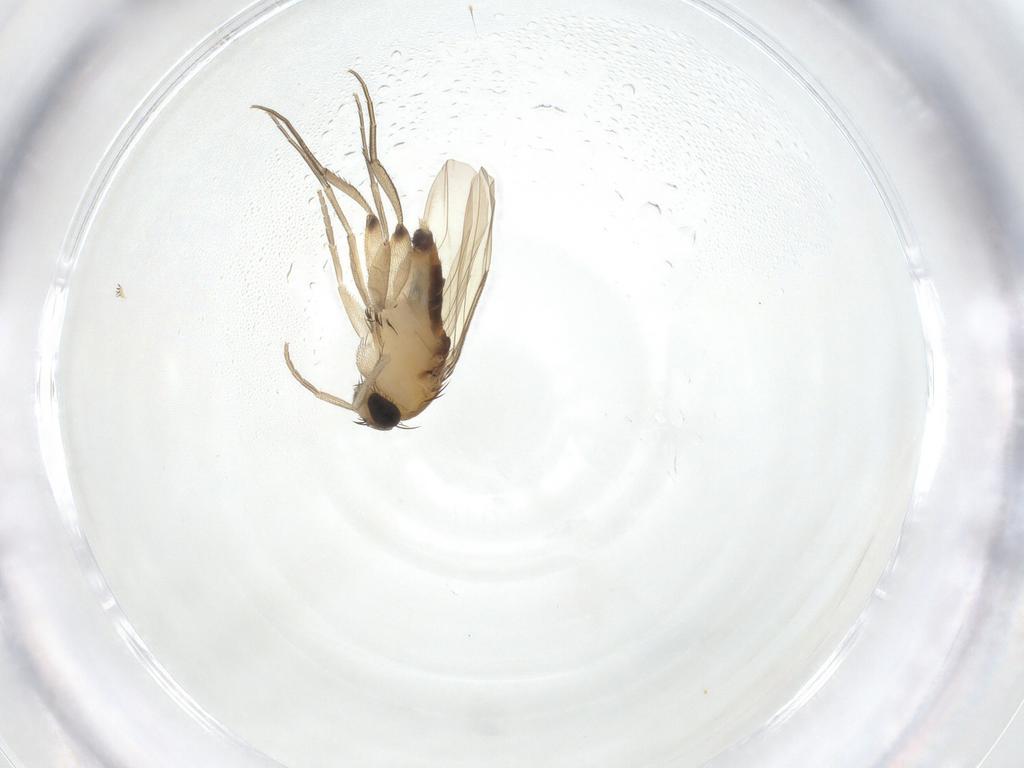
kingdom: Animalia
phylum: Arthropoda
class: Insecta
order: Diptera
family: Phoridae
